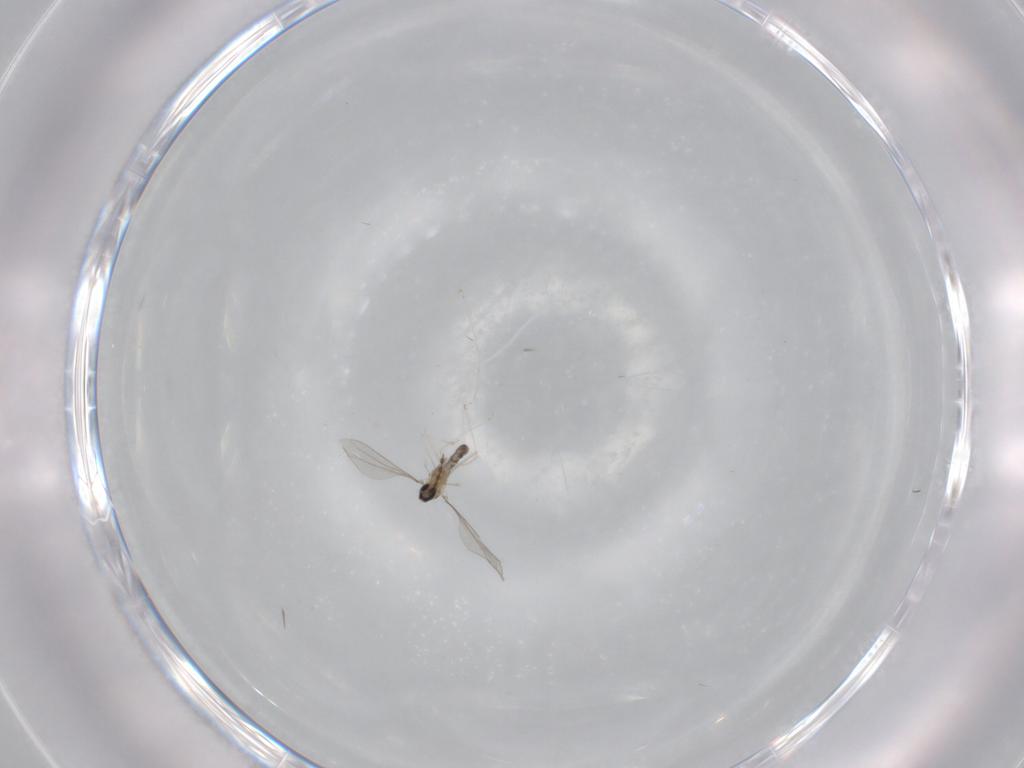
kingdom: Animalia
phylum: Arthropoda
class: Insecta
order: Diptera
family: Cecidomyiidae
